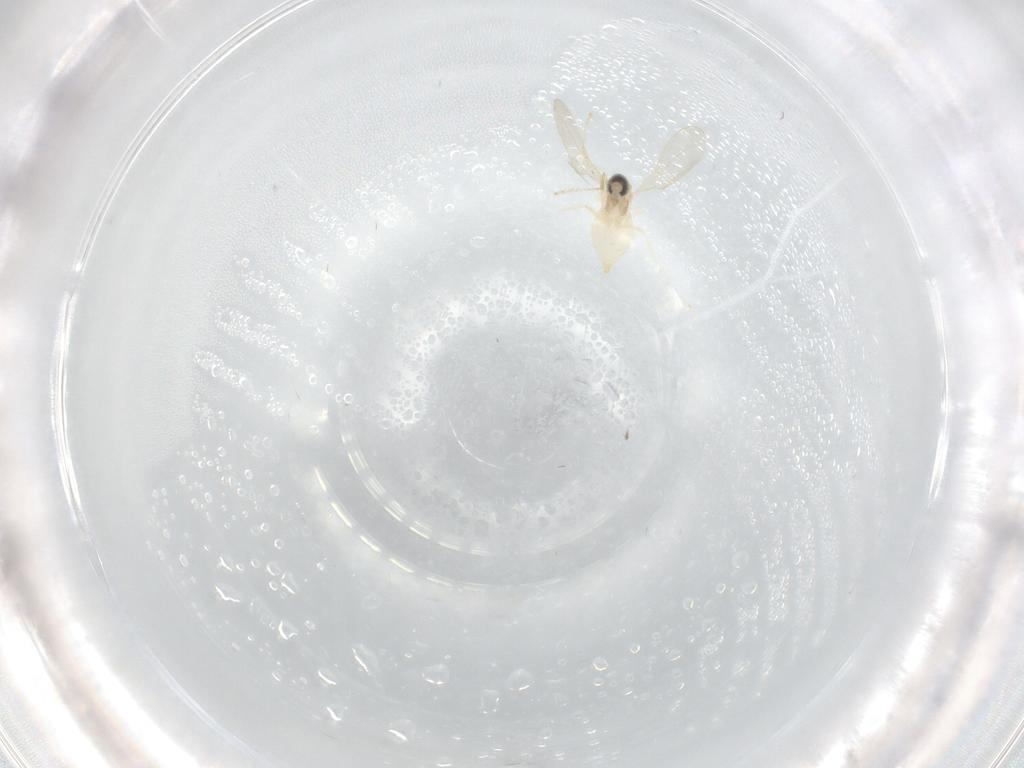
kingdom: Animalia
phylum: Arthropoda
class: Insecta
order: Diptera
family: Cecidomyiidae
